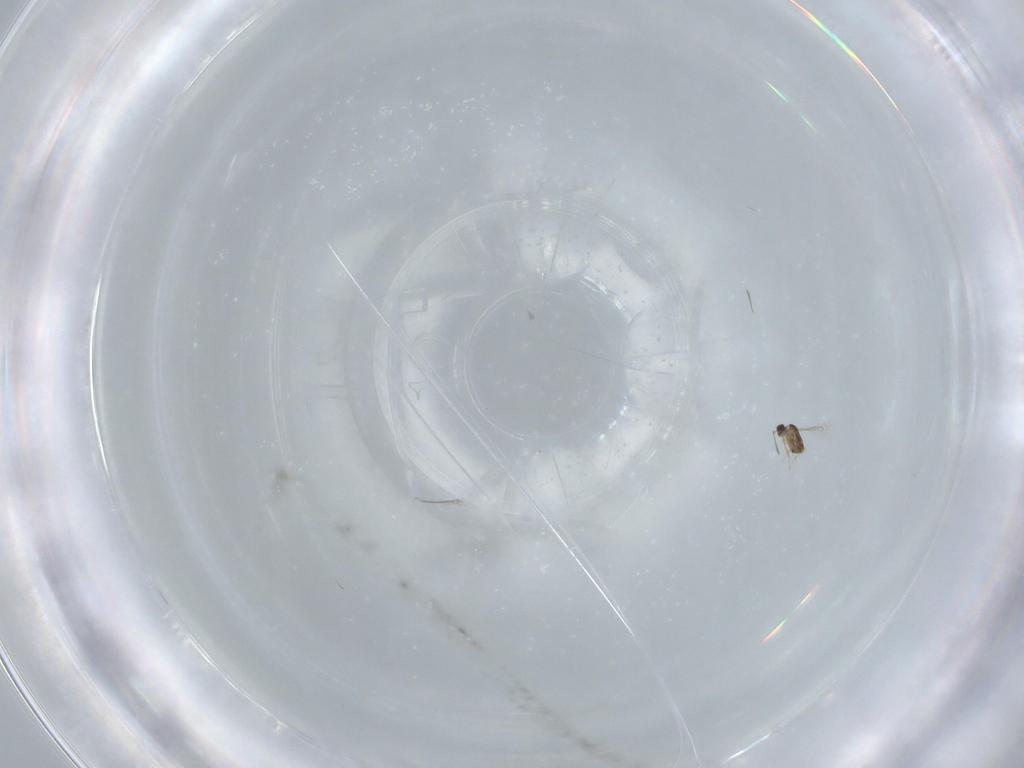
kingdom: Animalia
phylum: Arthropoda
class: Insecta
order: Hymenoptera
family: Mymaridae
